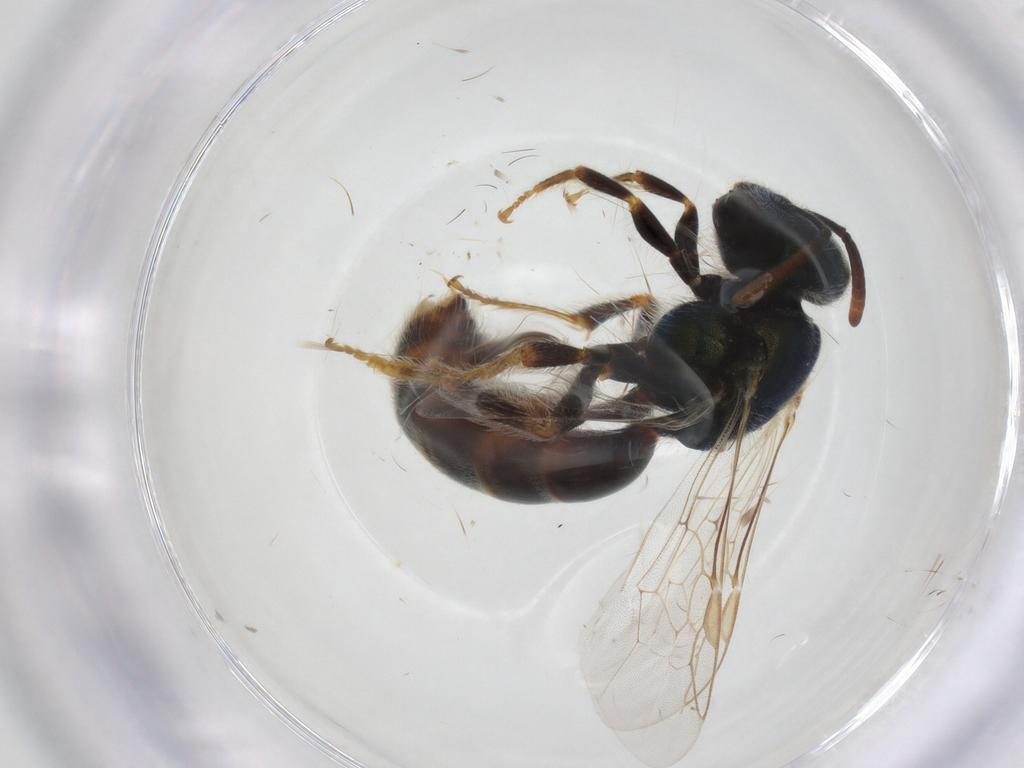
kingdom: Animalia
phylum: Arthropoda
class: Insecta
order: Hymenoptera
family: Halictidae
